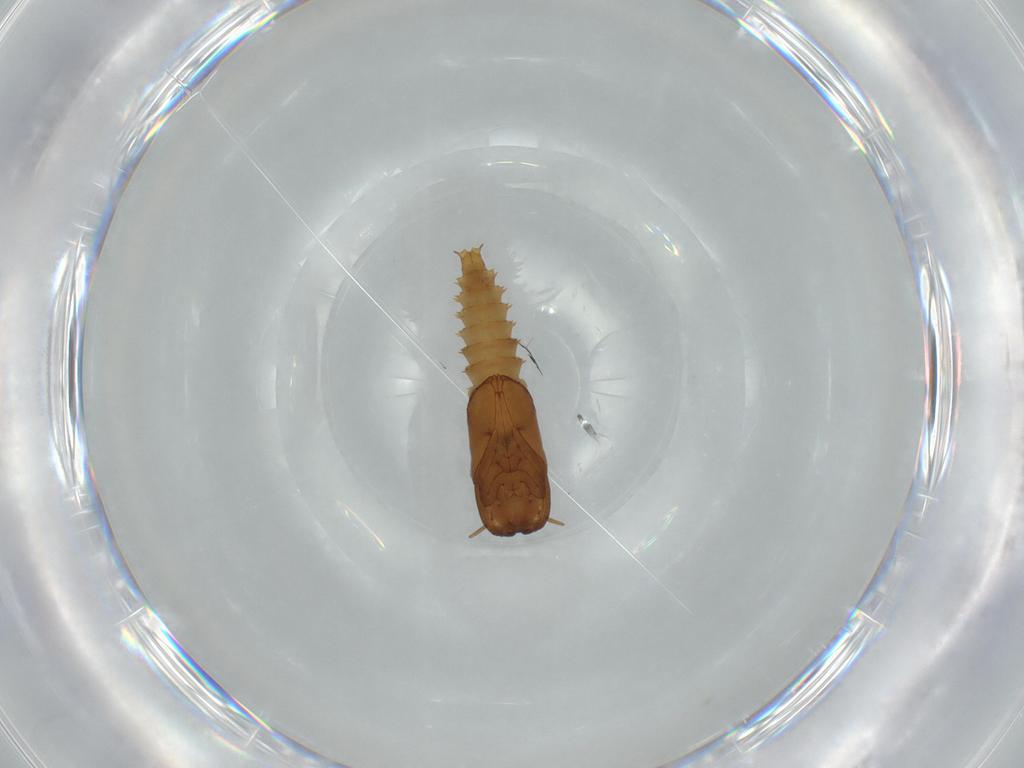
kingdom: Animalia
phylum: Arthropoda
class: Insecta
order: Diptera
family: Ceratopogonidae
